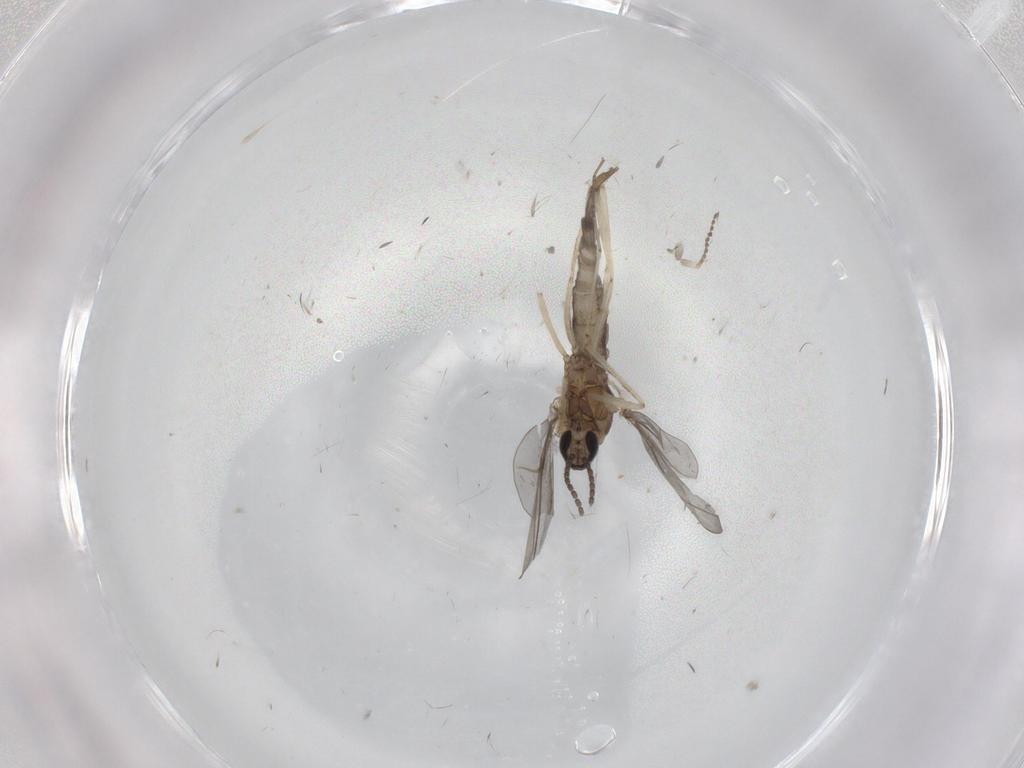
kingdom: Animalia
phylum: Arthropoda
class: Insecta
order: Diptera
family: Cecidomyiidae
